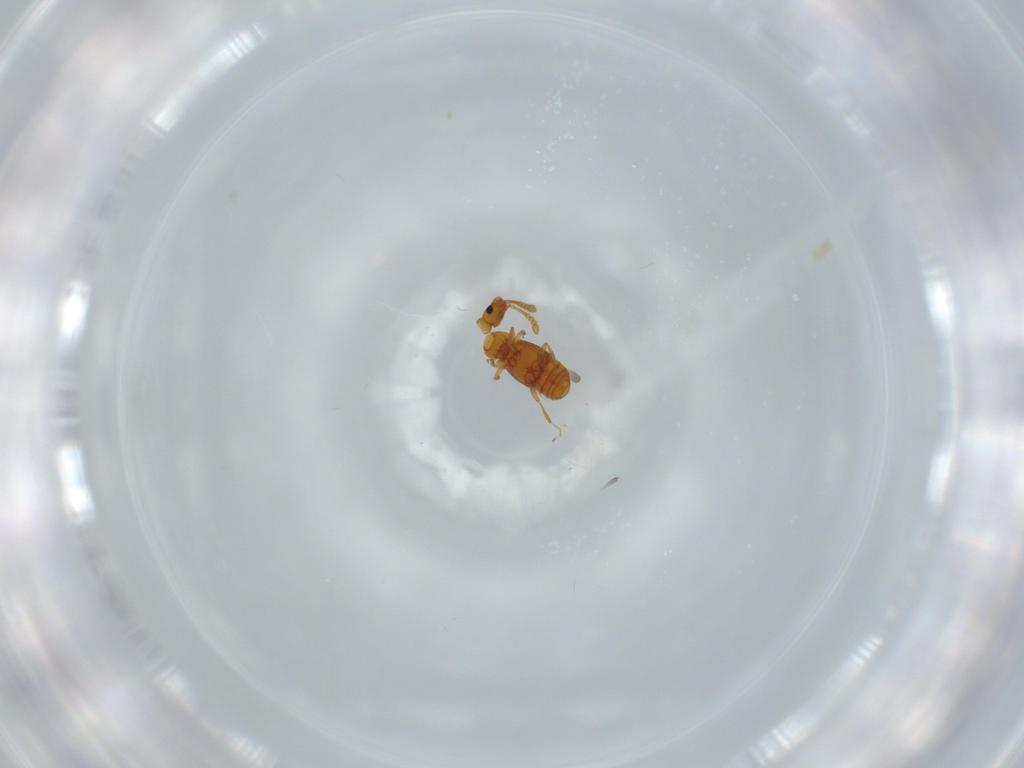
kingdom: Animalia
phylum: Arthropoda
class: Insecta
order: Coleoptera
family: Staphylinidae
